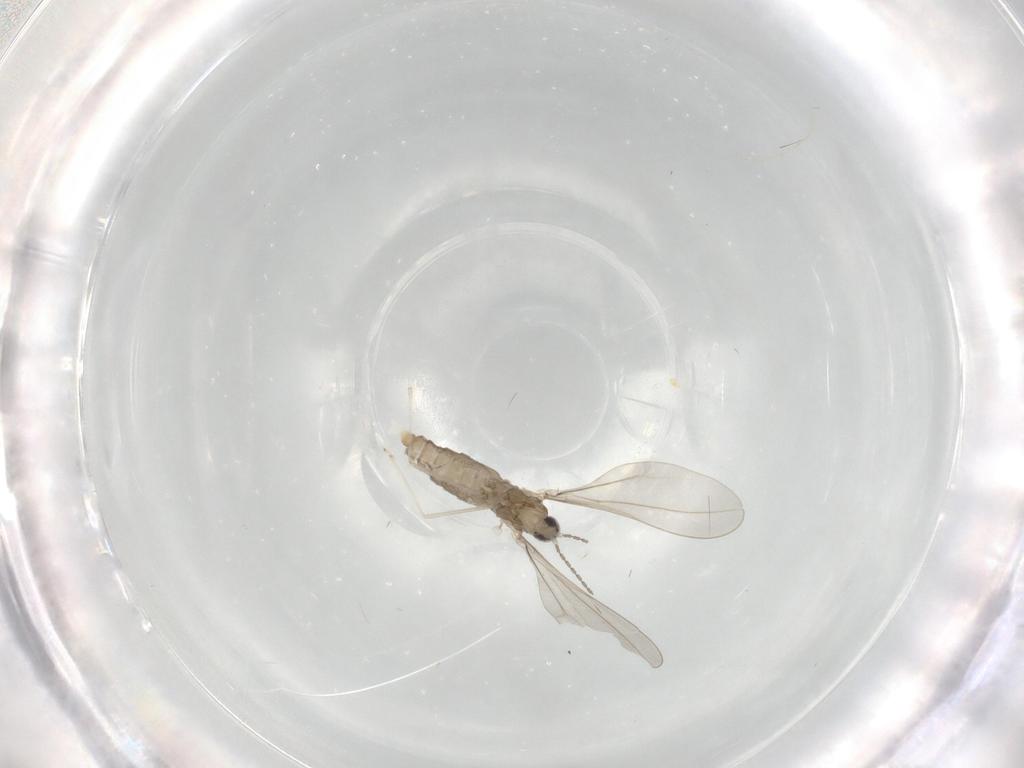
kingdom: Animalia
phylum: Arthropoda
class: Insecta
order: Diptera
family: Cecidomyiidae
